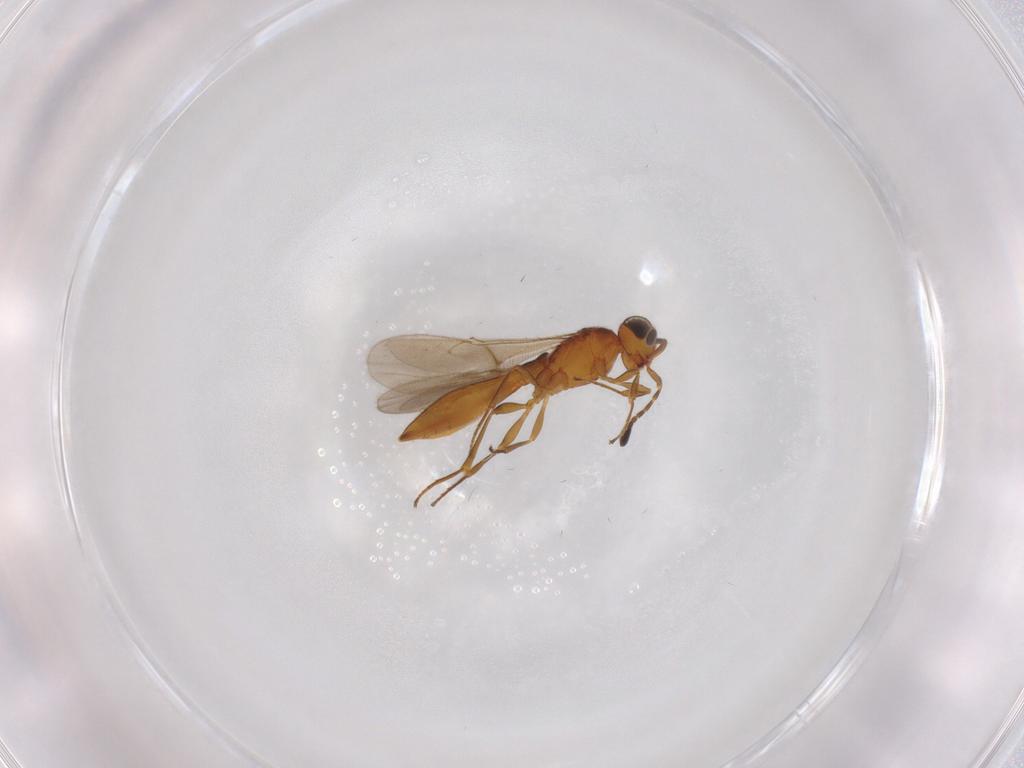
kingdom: Animalia
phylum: Arthropoda
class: Insecta
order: Hymenoptera
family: Scelionidae
